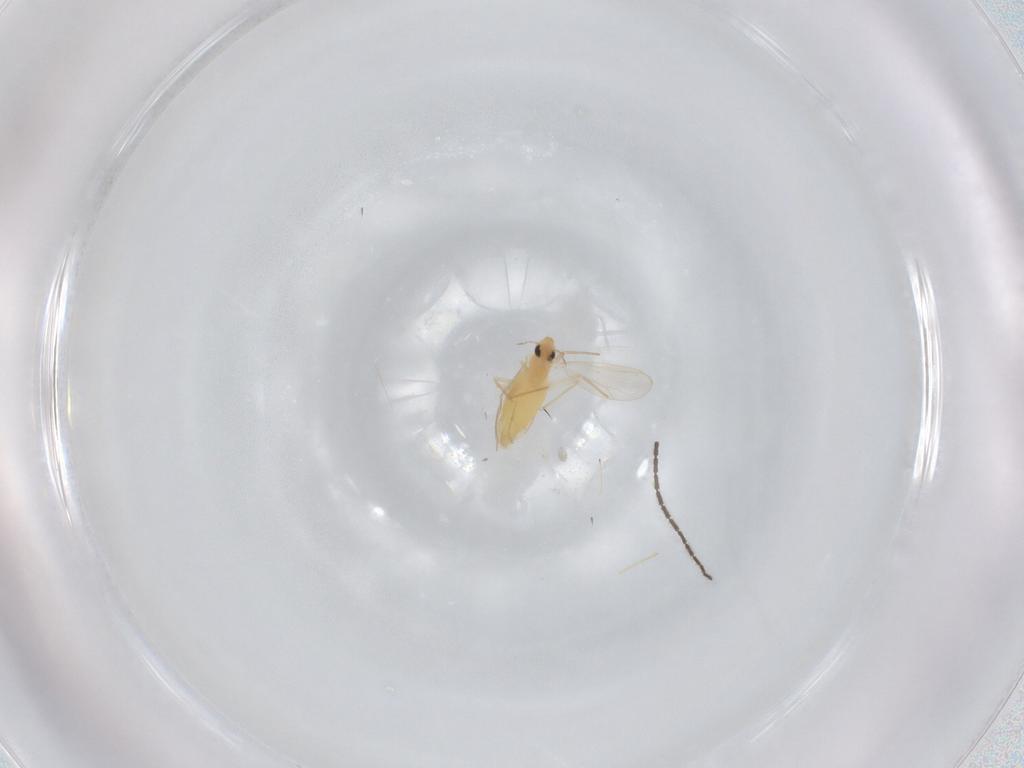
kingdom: Animalia
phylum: Arthropoda
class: Insecta
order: Diptera
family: Chironomidae
